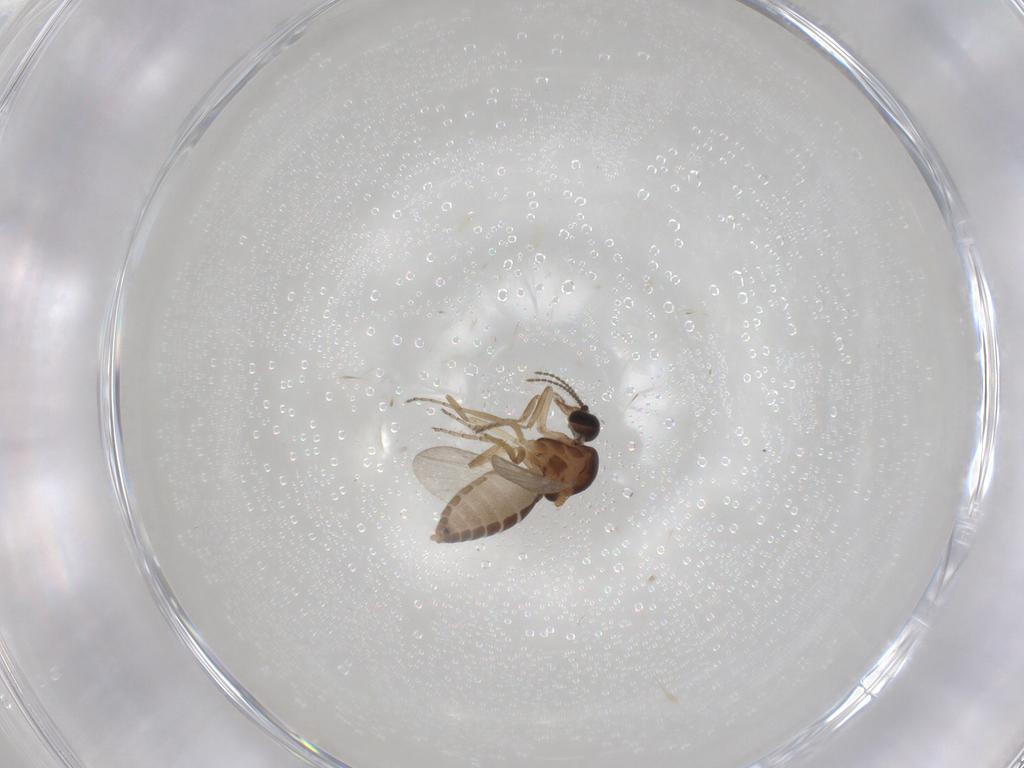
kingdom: Animalia
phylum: Arthropoda
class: Insecta
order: Diptera
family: Ceratopogonidae
